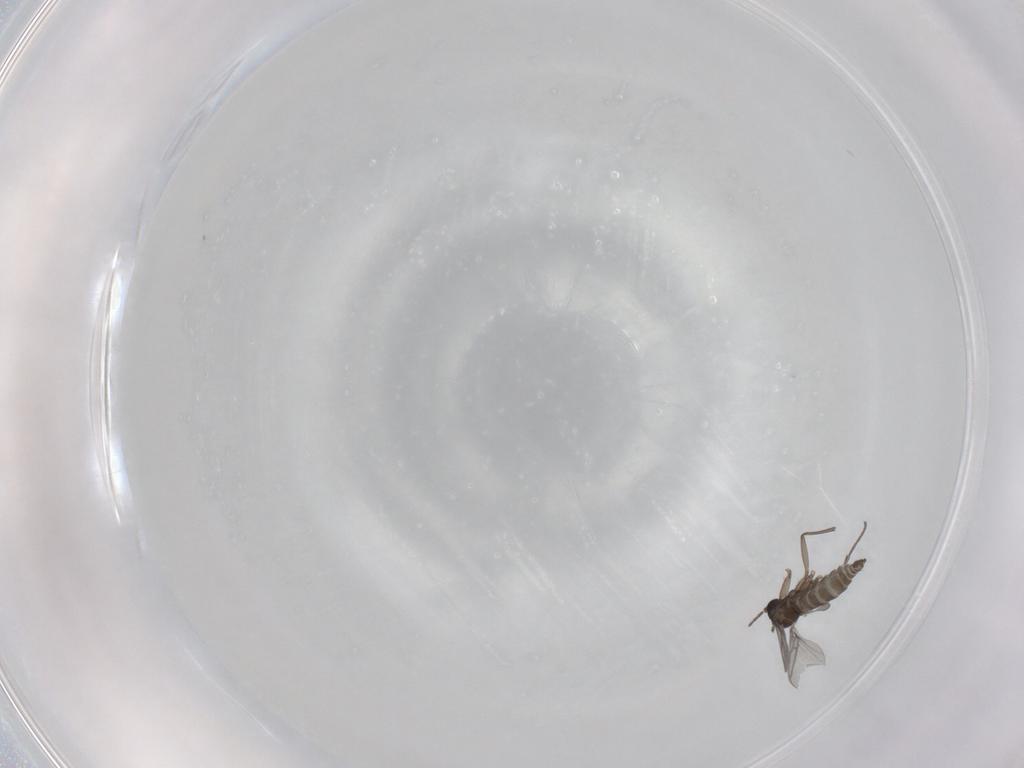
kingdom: Animalia
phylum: Arthropoda
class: Insecta
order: Diptera
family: Sciaridae
